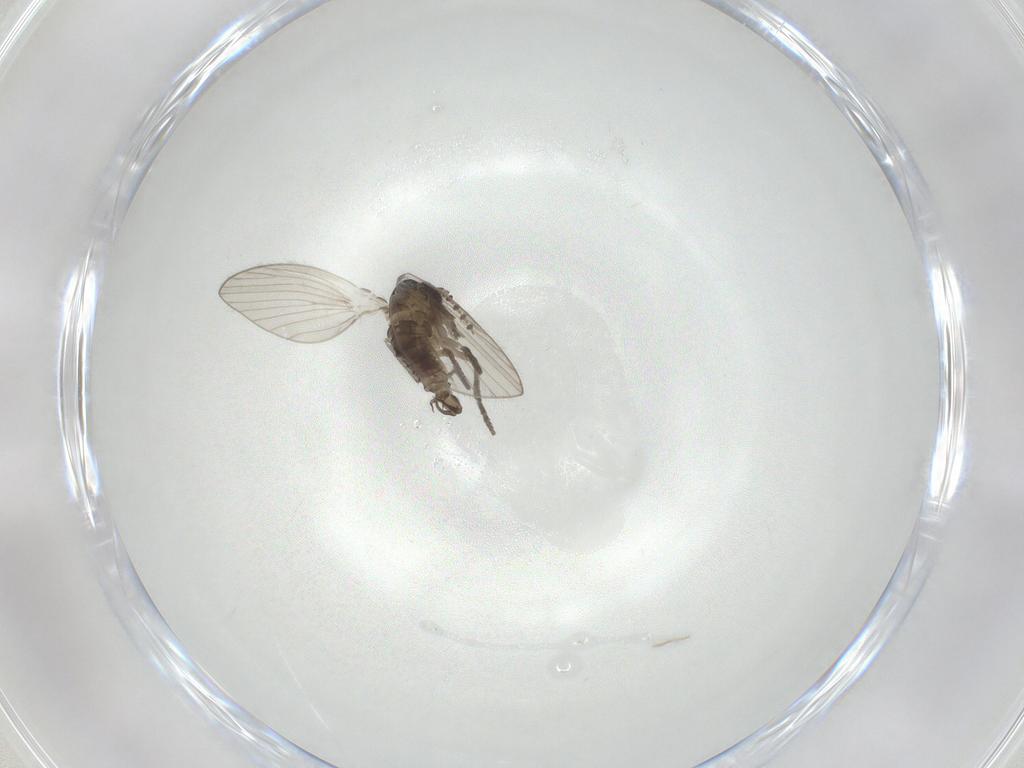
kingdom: Animalia
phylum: Arthropoda
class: Insecta
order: Diptera
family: Psychodidae
